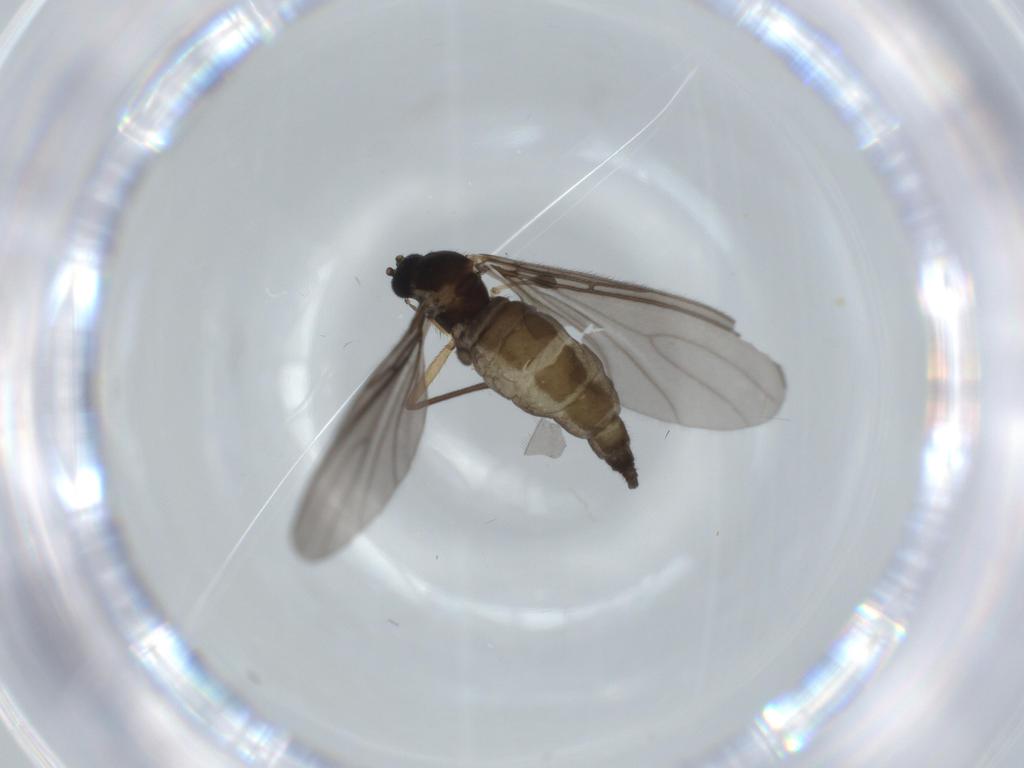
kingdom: Animalia
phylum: Arthropoda
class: Insecta
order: Diptera
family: Sciaridae
